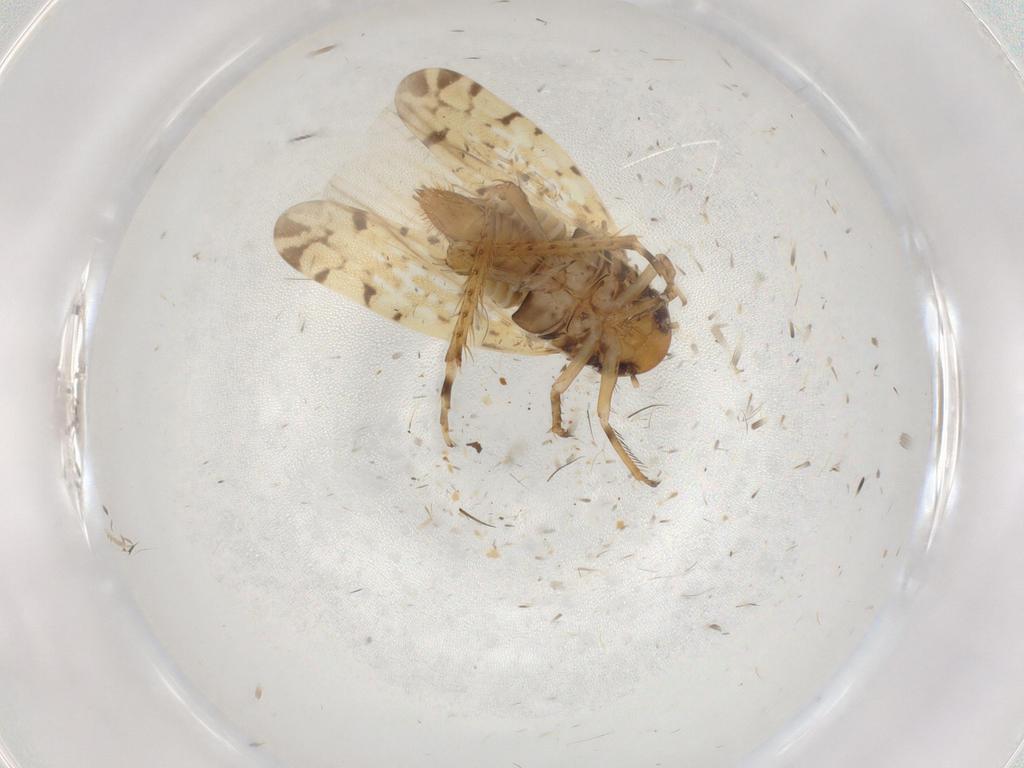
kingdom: Animalia
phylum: Arthropoda
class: Insecta
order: Hemiptera
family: Cicadellidae
